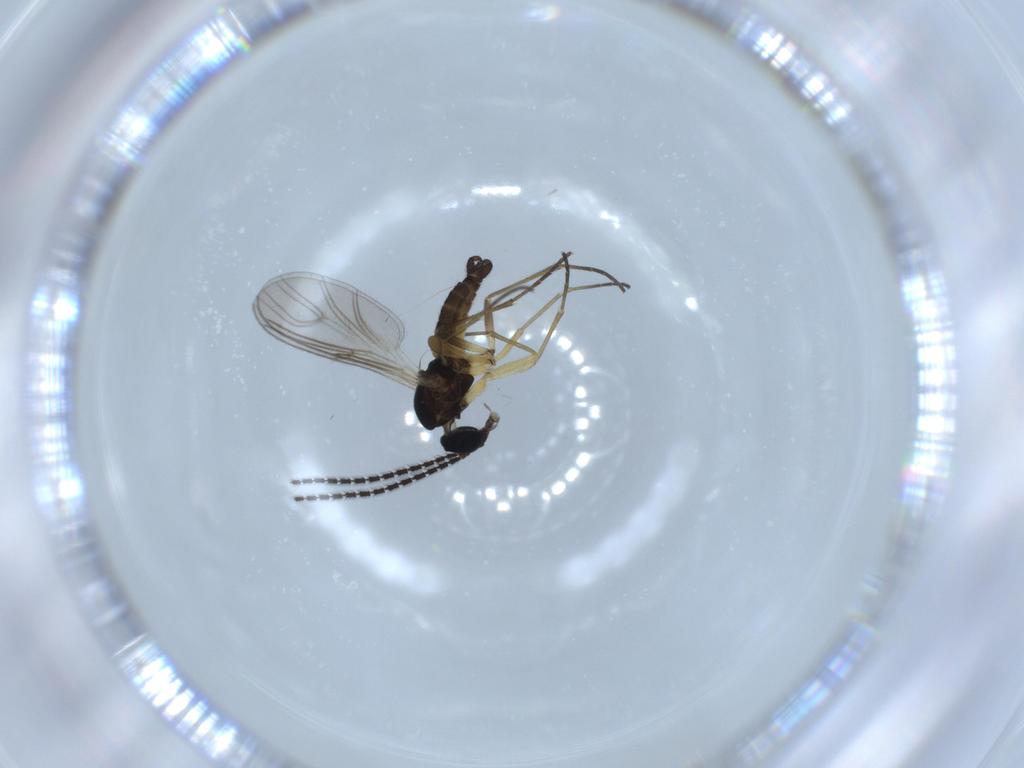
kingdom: Animalia
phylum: Arthropoda
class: Insecta
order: Diptera
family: Sciaridae
